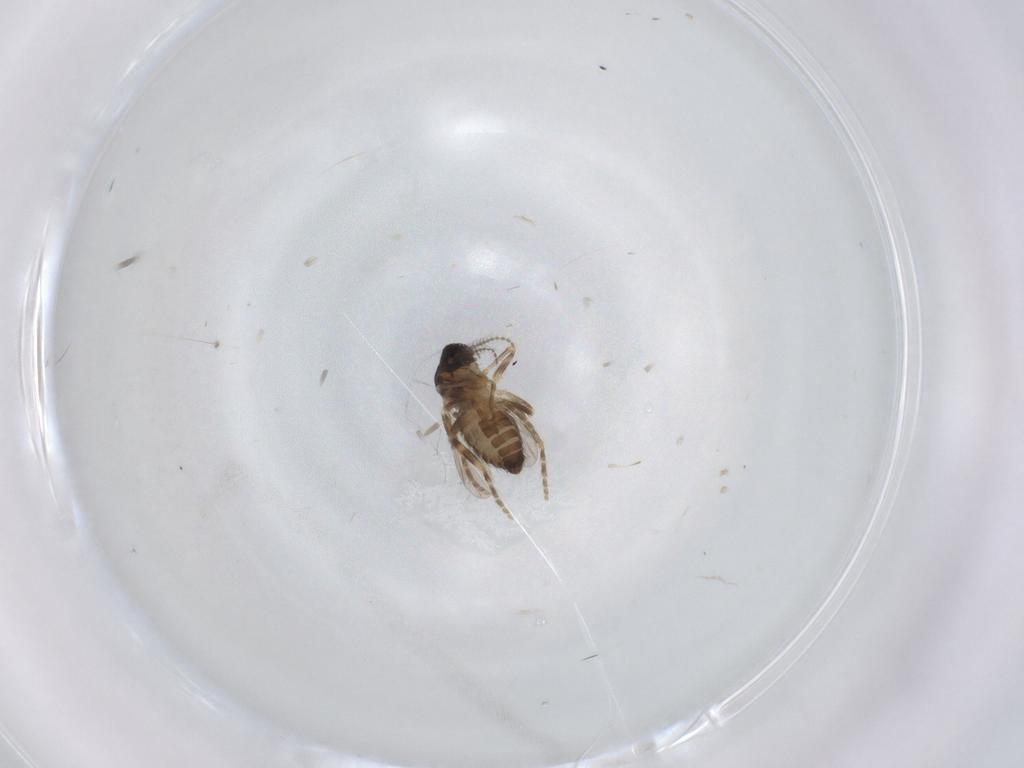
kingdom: Animalia
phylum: Arthropoda
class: Insecta
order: Diptera
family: Ceratopogonidae
